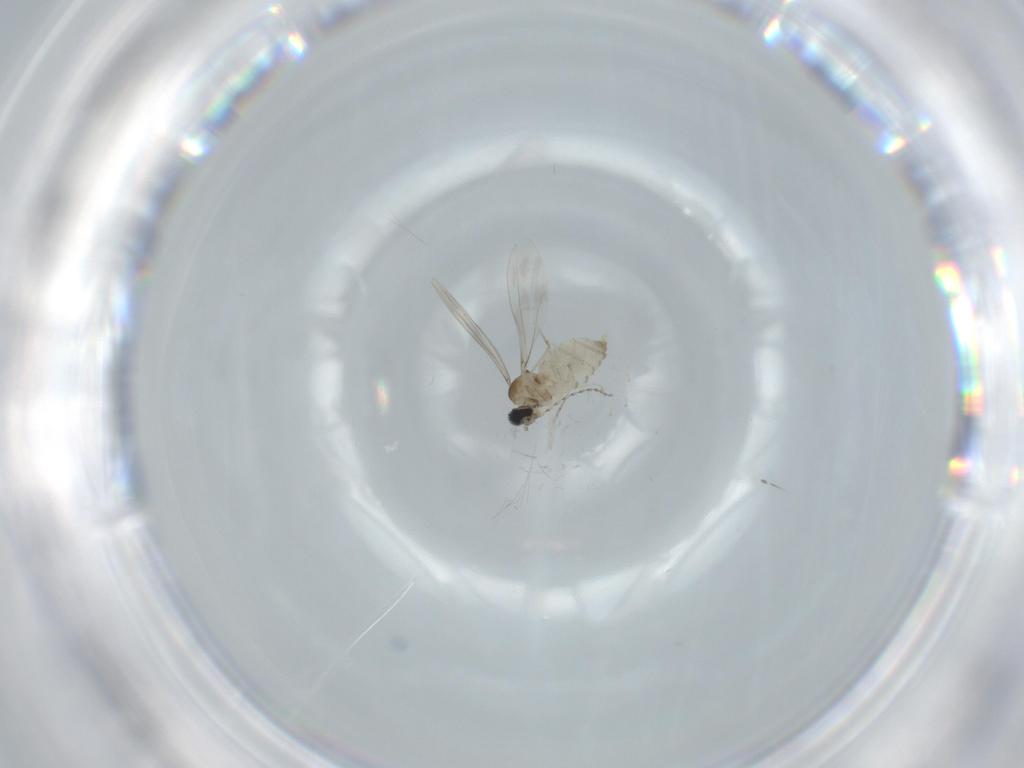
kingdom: Animalia
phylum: Arthropoda
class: Insecta
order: Diptera
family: Cecidomyiidae
